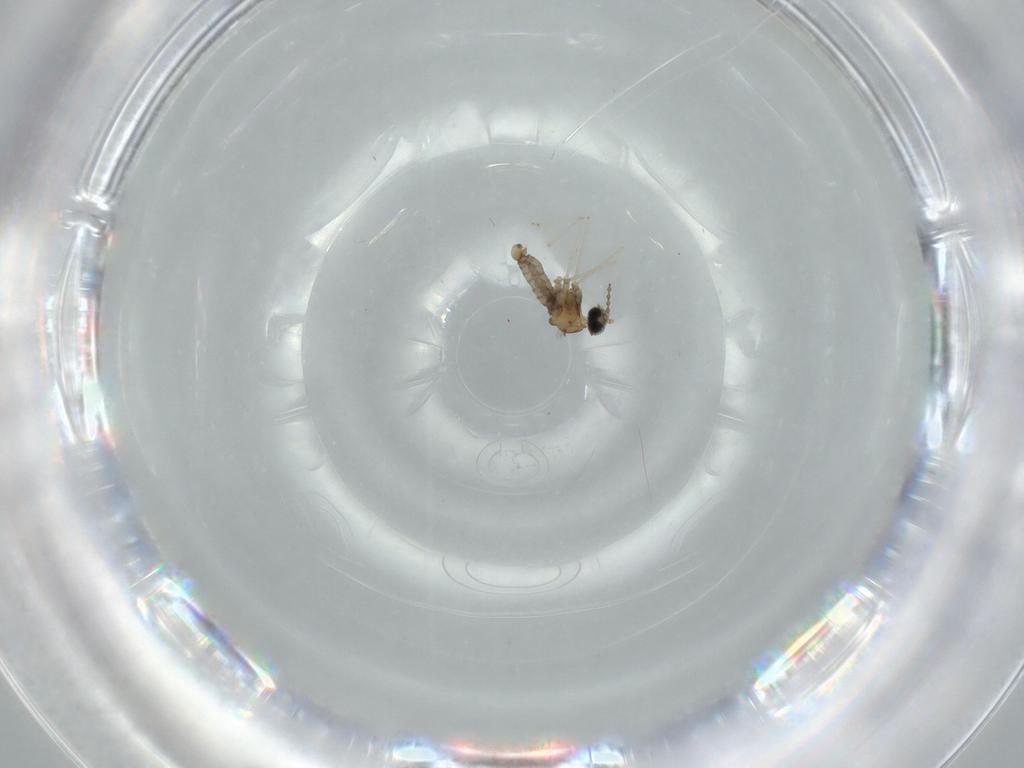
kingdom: Animalia
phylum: Arthropoda
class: Insecta
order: Diptera
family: Cecidomyiidae
